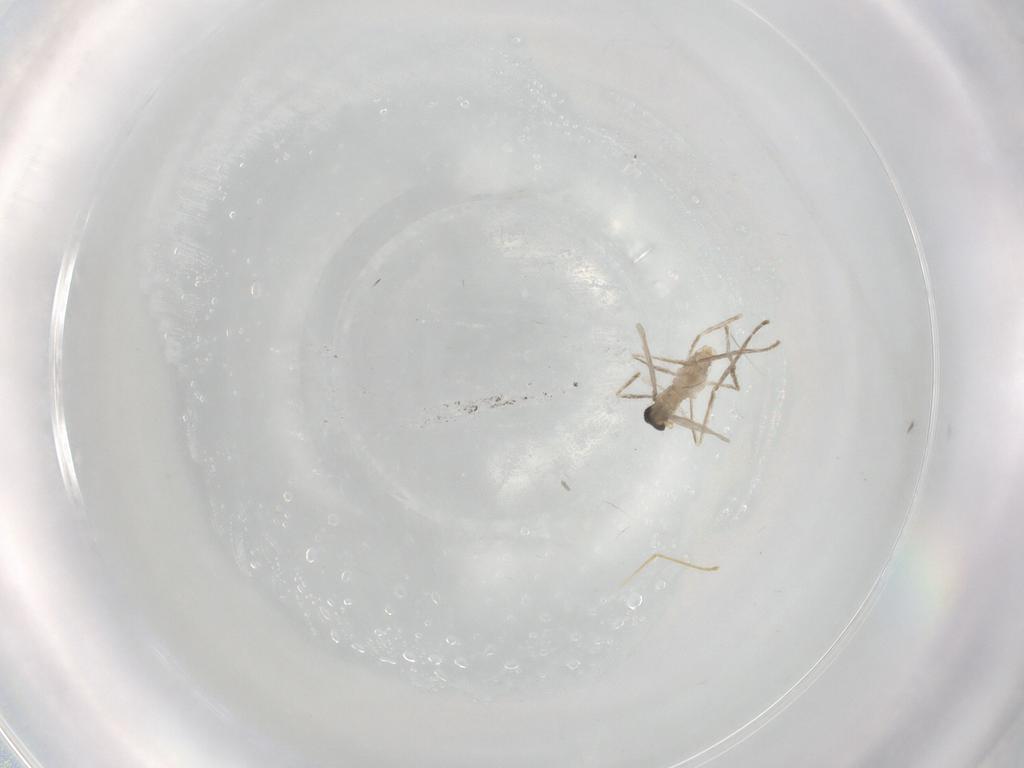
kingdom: Animalia
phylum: Arthropoda
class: Insecta
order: Diptera
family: Cecidomyiidae
